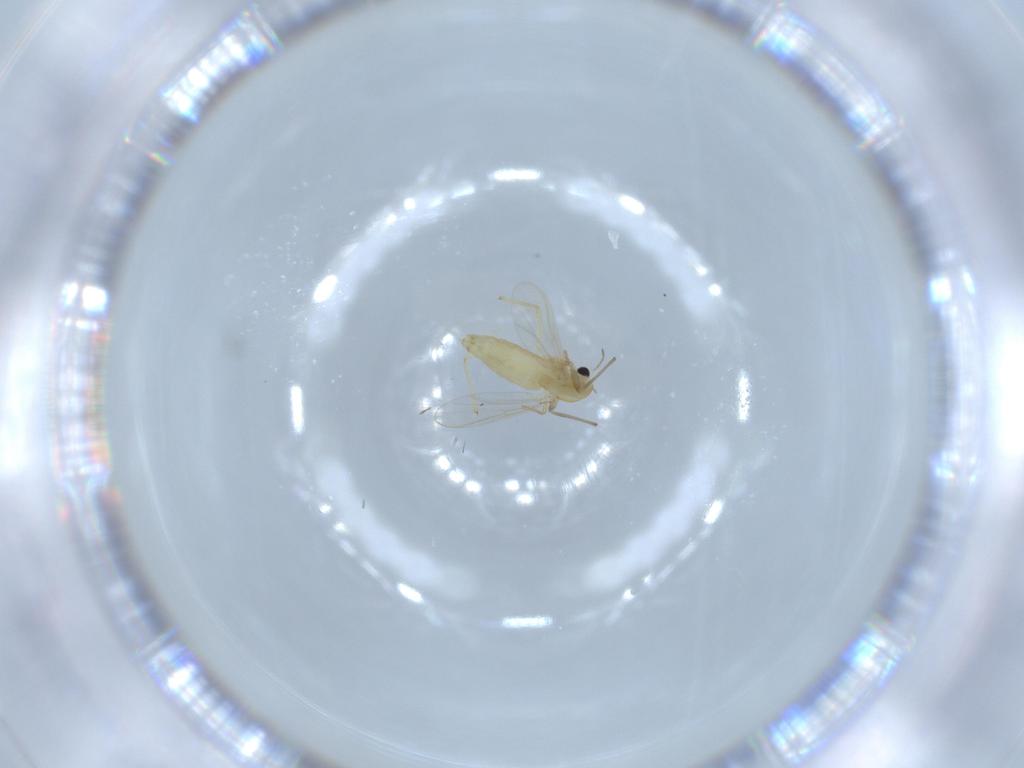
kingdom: Animalia
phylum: Arthropoda
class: Insecta
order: Diptera
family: Chironomidae
